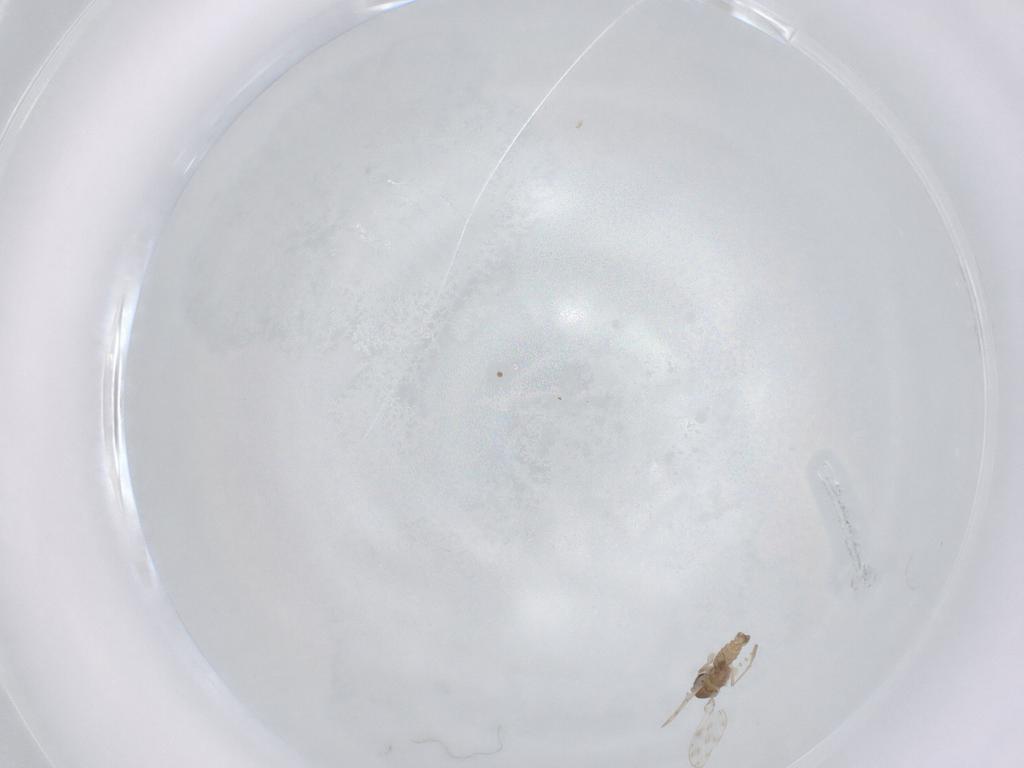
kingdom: Animalia
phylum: Arthropoda
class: Insecta
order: Diptera
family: Psychodidae
